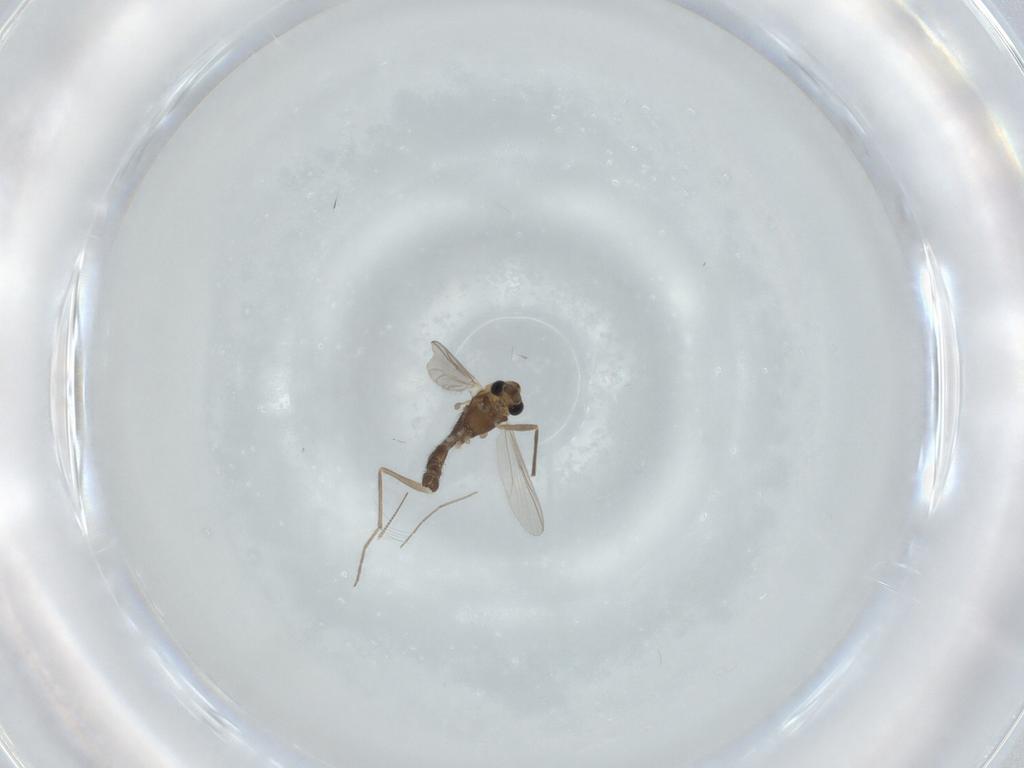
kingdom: Animalia
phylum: Arthropoda
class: Insecta
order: Diptera
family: Chironomidae
